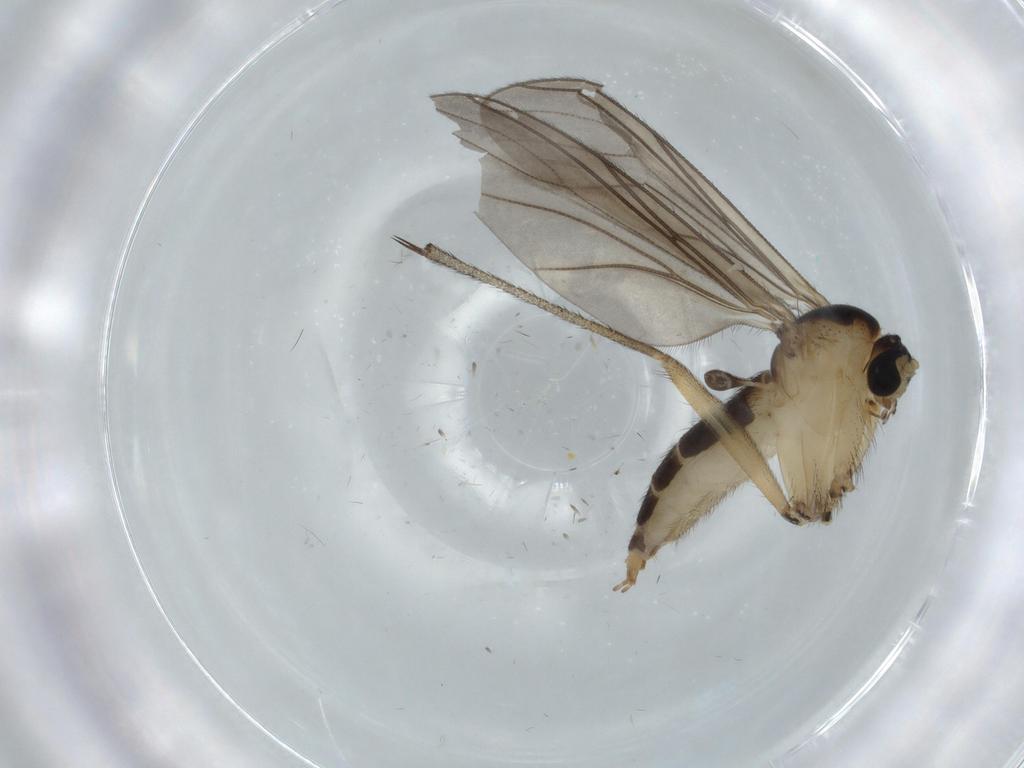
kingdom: Animalia
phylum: Arthropoda
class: Insecta
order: Diptera
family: Sciaridae
